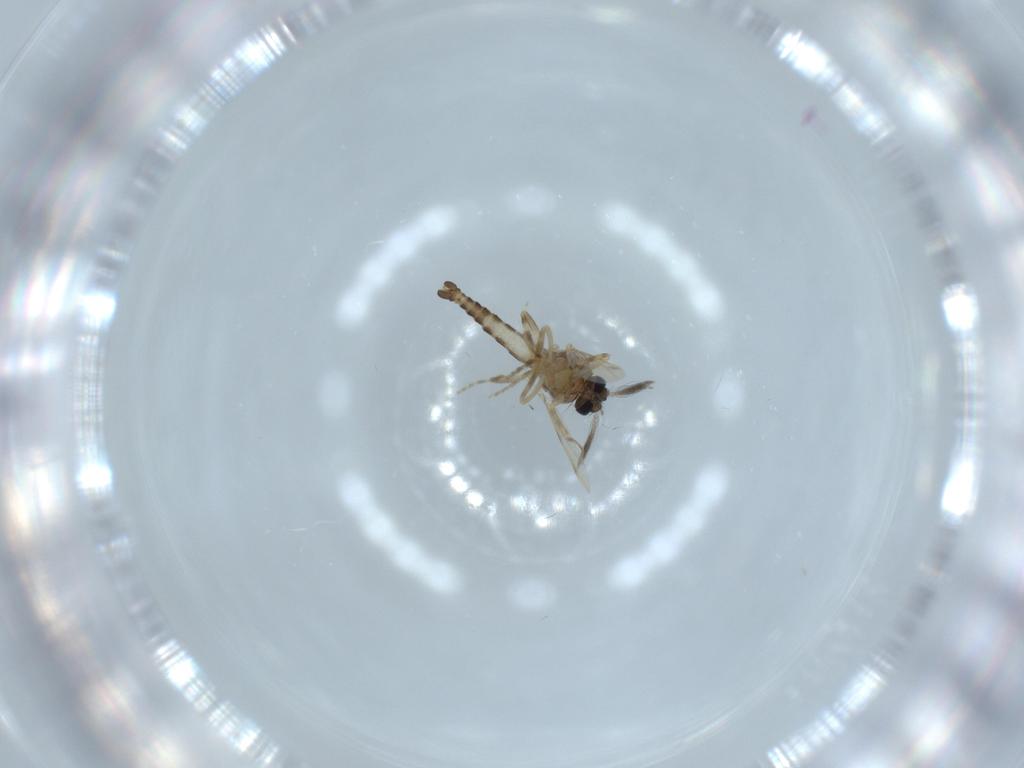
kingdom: Animalia
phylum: Arthropoda
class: Insecta
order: Diptera
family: Ceratopogonidae
